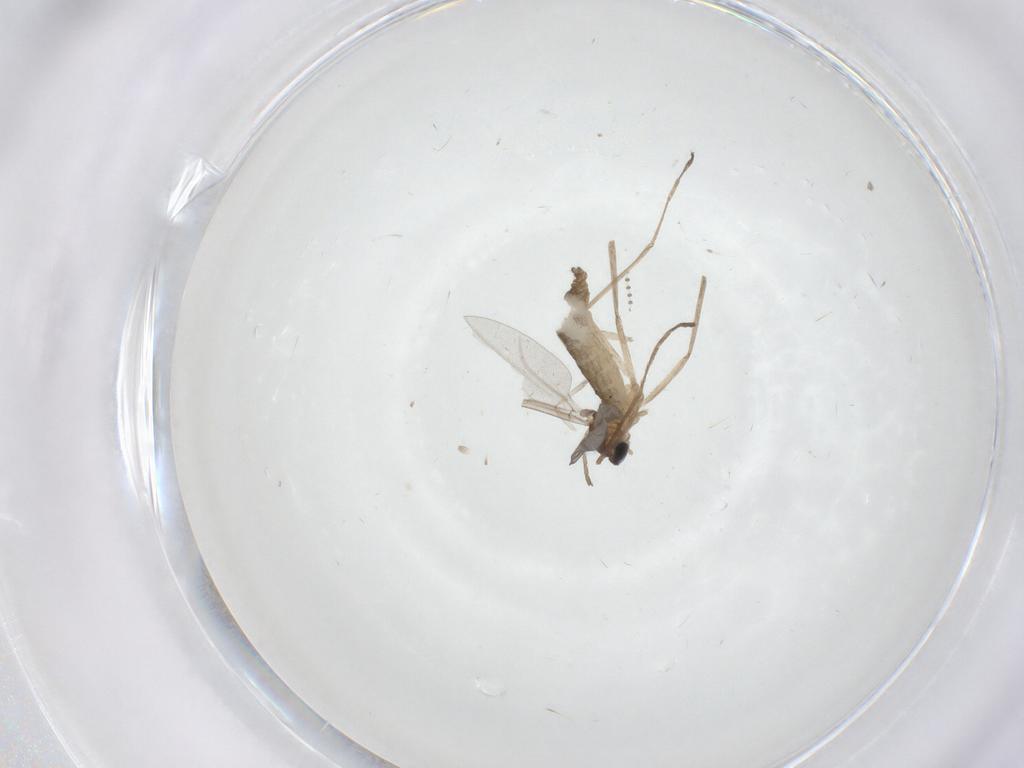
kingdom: Animalia
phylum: Arthropoda
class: Insecta
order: Diptera
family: Cecidomyiidae
